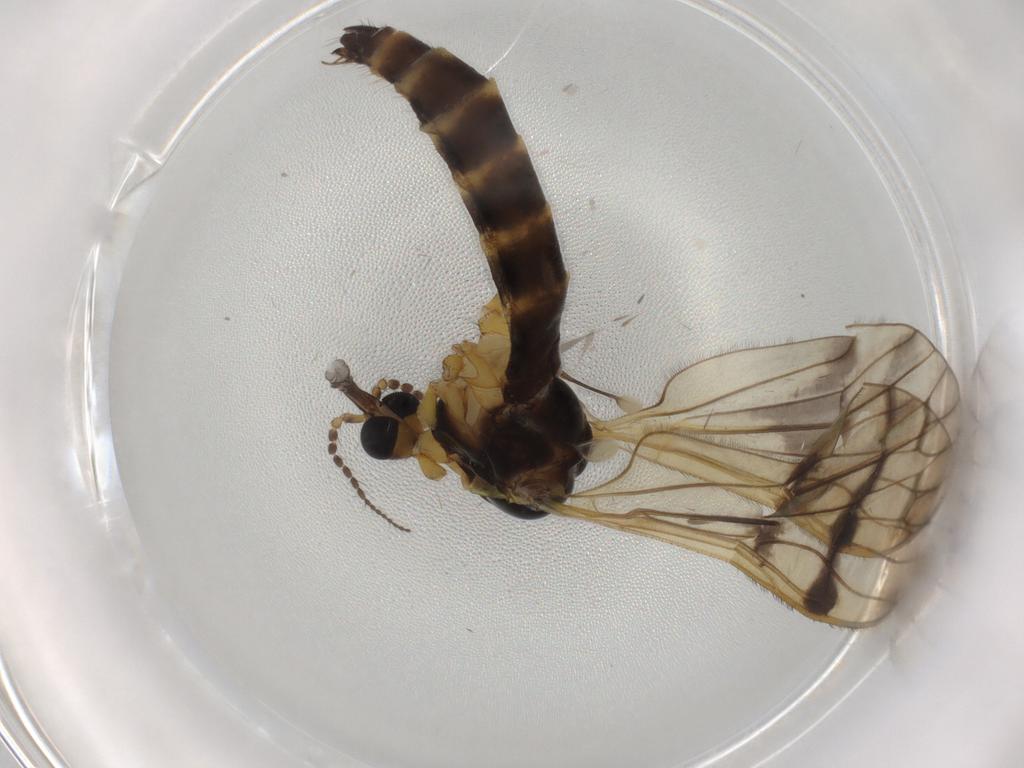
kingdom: Animalia
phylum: Arthropoda
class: Insecta
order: Diptera
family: Limoniidae
